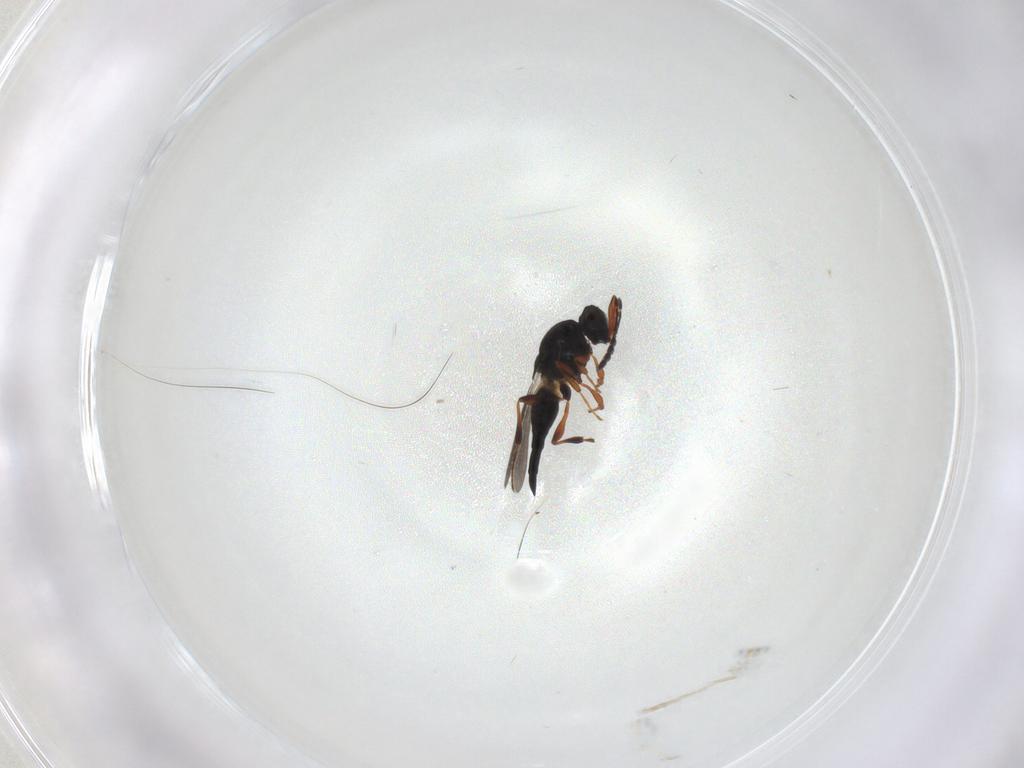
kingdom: Animalia
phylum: Arthropoda
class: Insecta
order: Hymenoptera
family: Platygastridae
